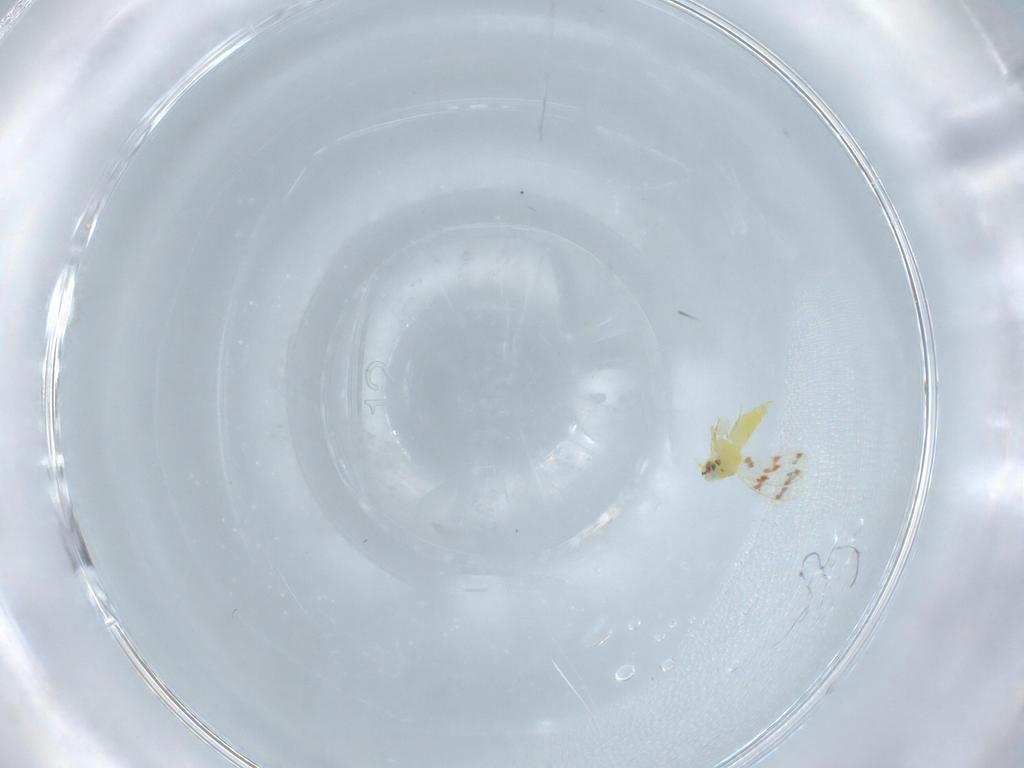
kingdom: Animalia
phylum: Arthropoda
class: Insecta
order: Hemiptera
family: Aleyrodidae
